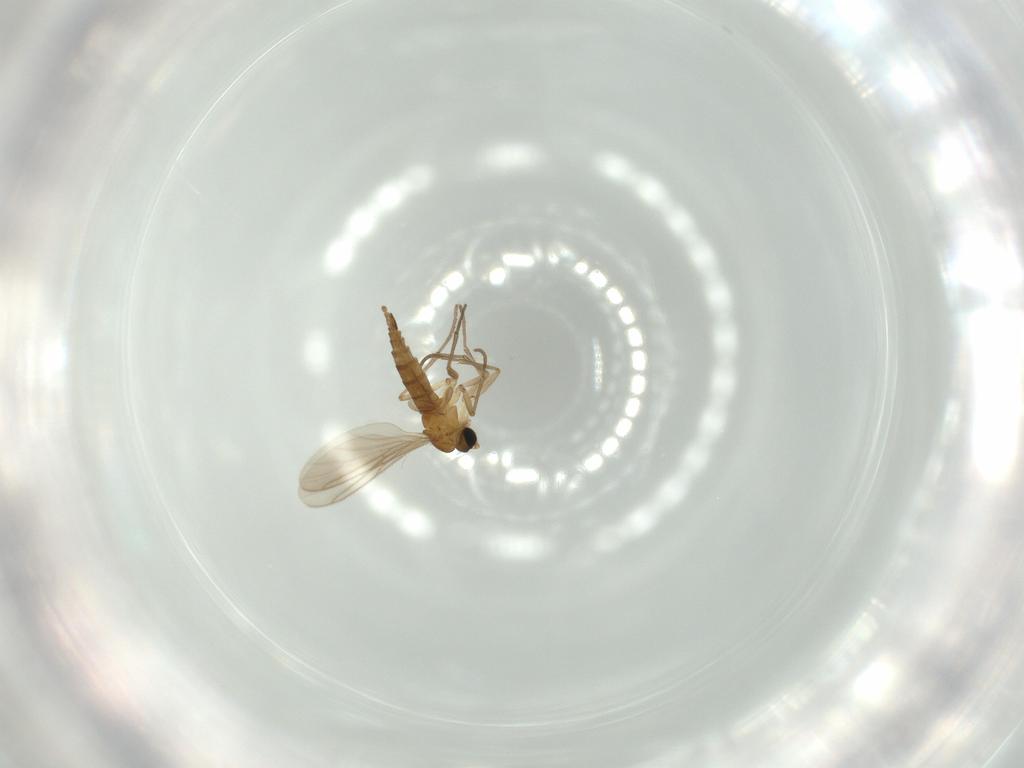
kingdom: Animalia
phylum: Arthropoda
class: Insecta
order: Diptera
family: Sciaridae
